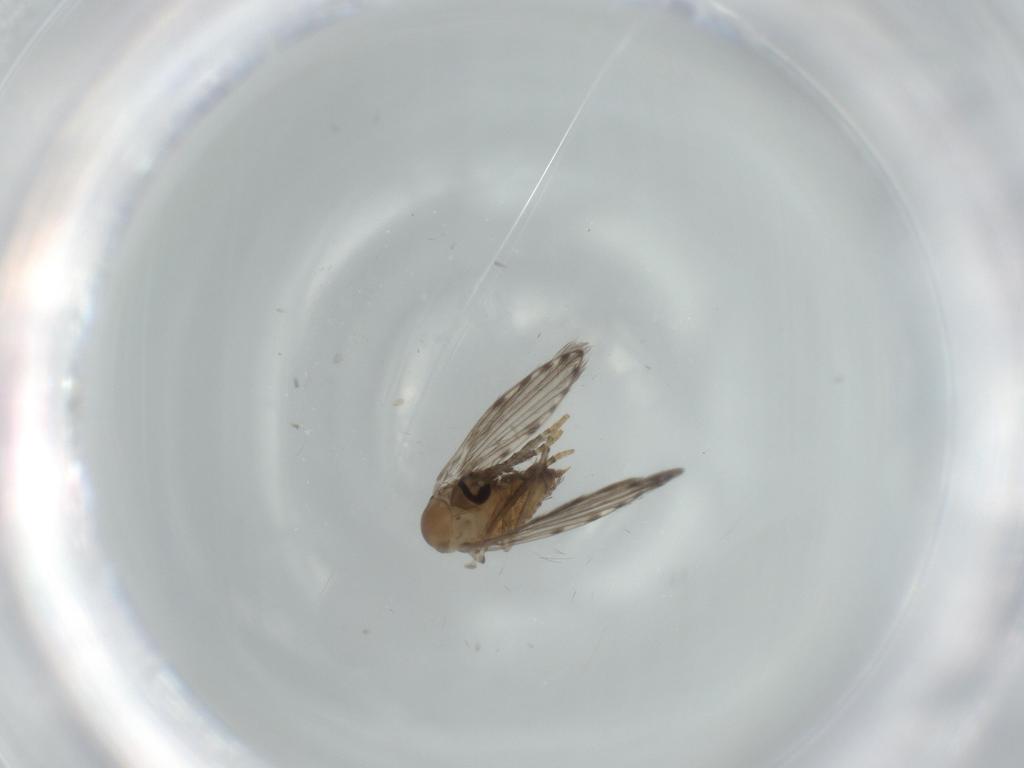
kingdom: Animalia
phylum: Arthropoda
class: Insecta
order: Diptera
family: Psychodidae
